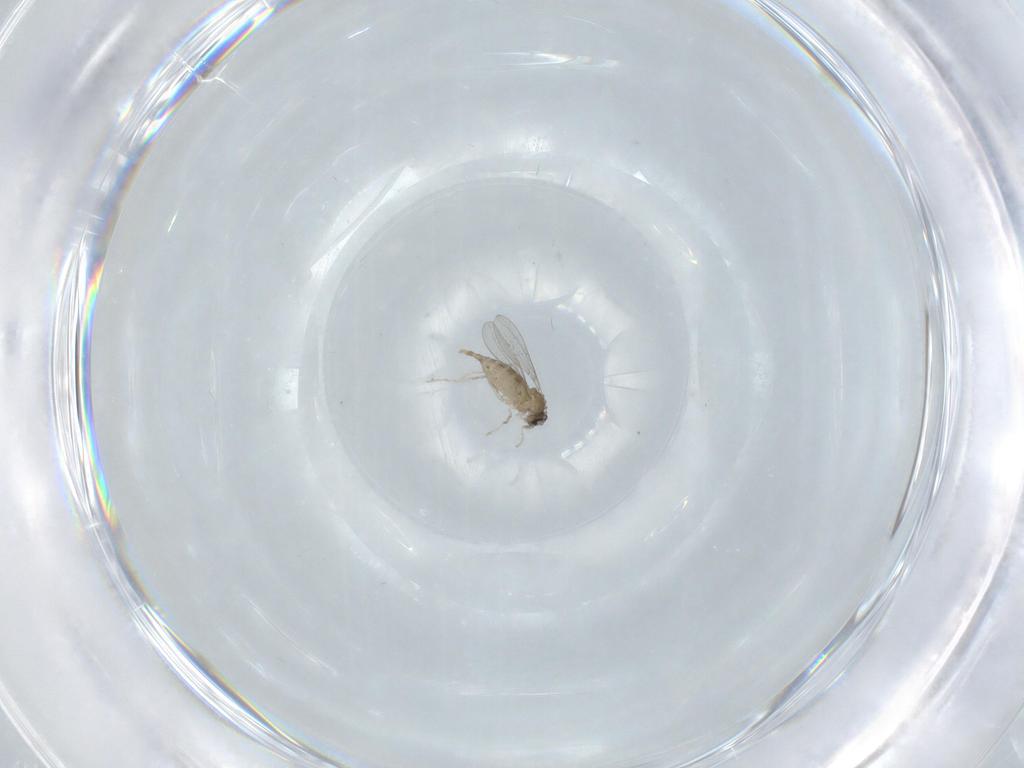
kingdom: Animalia
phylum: Arthropoda
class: Insecta
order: Diptera
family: Cecidomyiidae
